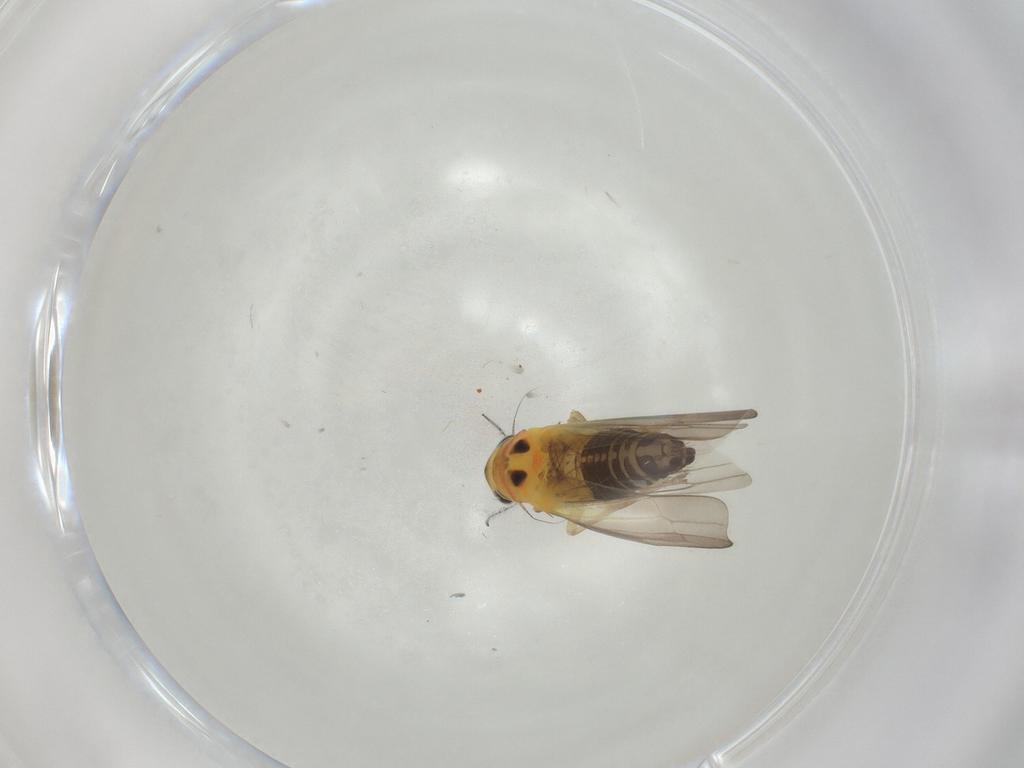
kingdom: Animalia
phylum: Arthropoda
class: Insecta
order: Hemiptera
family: Cicadellidae
